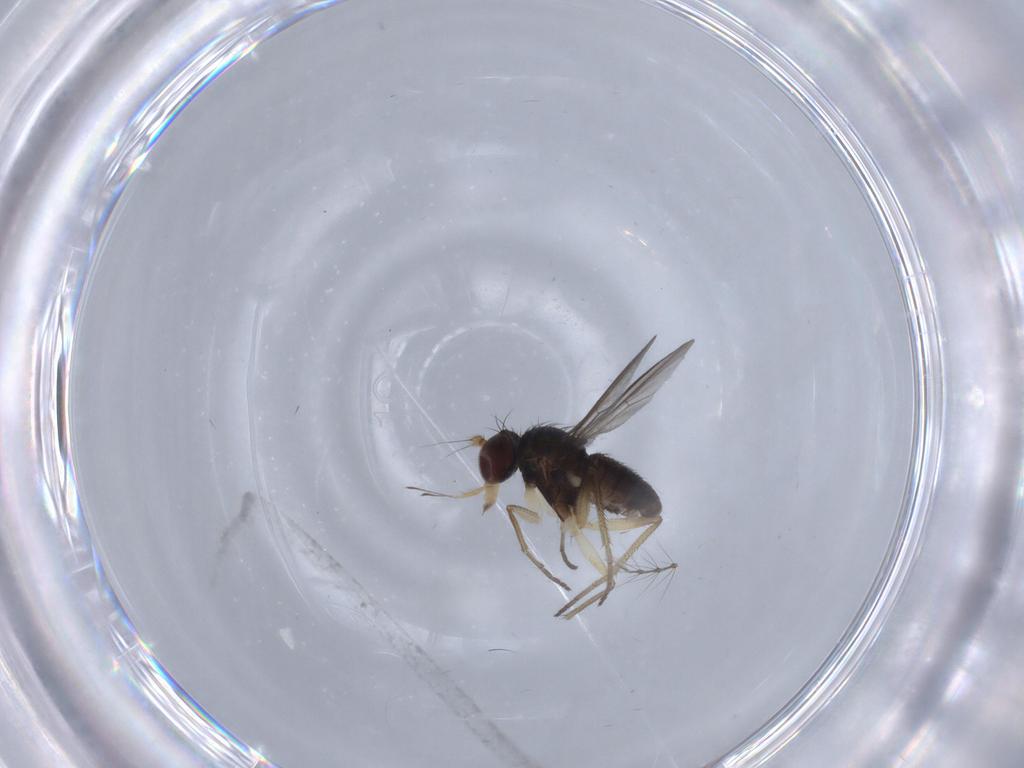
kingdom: Animalia
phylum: Arthropoda
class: Insecta
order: Diptera
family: Dolichopodidae
